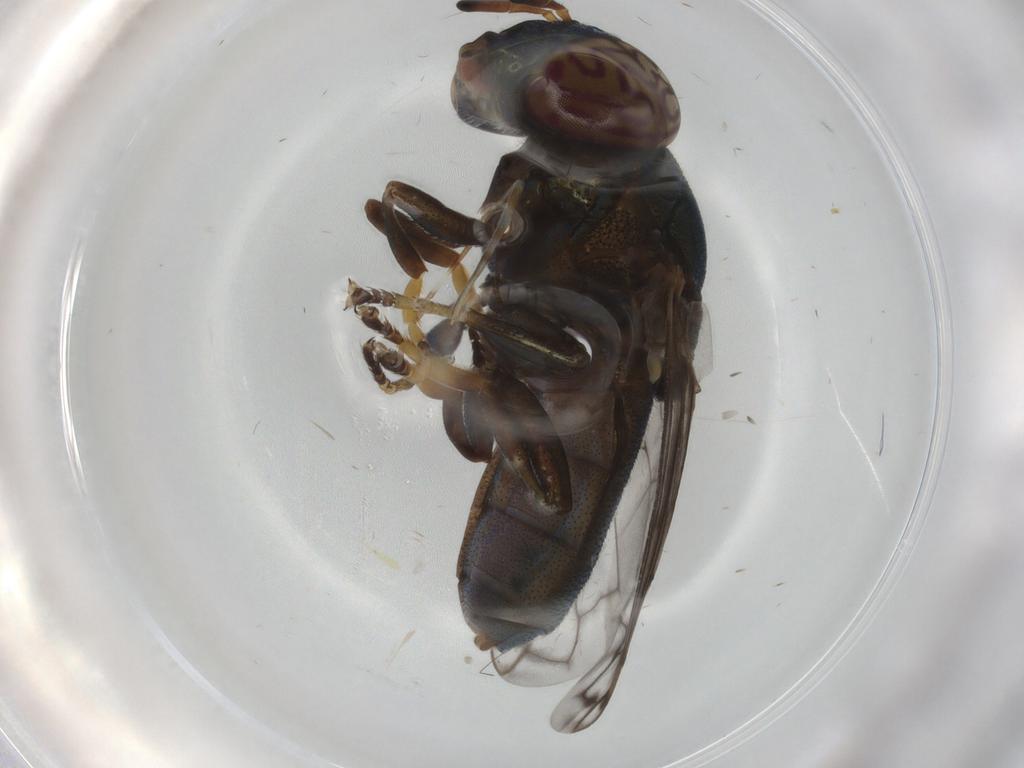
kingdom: Animalia
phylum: Arthropoda
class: Insecta
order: Diptera
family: Syrphidae
